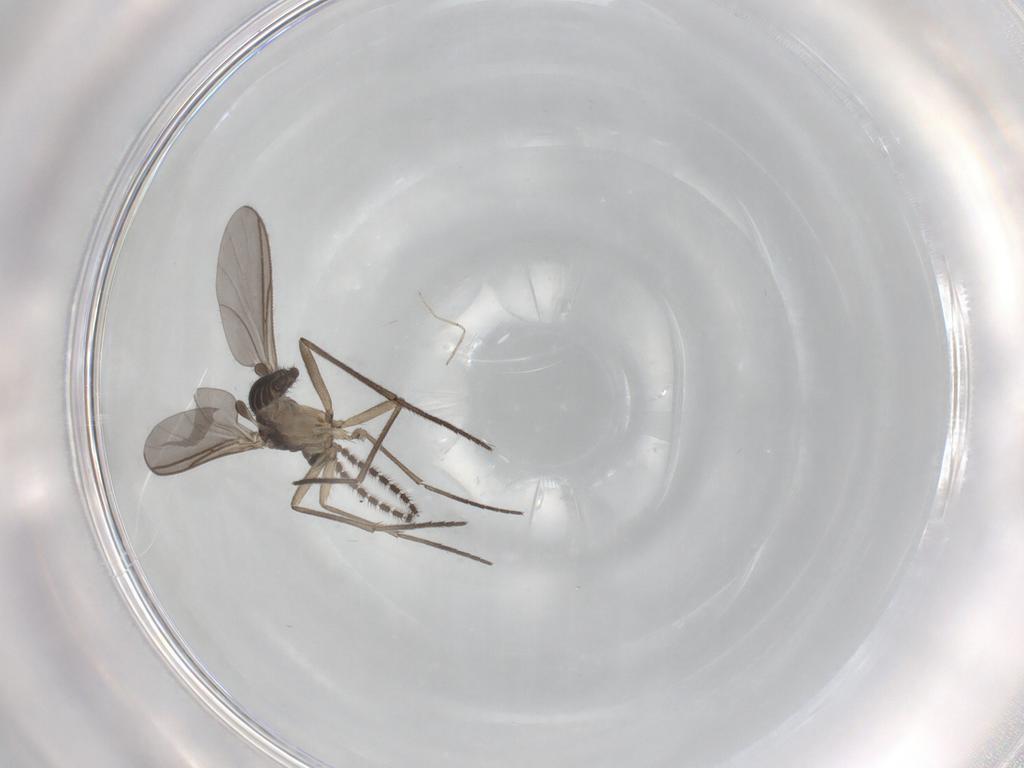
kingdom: Animalia
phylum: Arthropoda
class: Insecta
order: Diptera
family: Sciaridae
